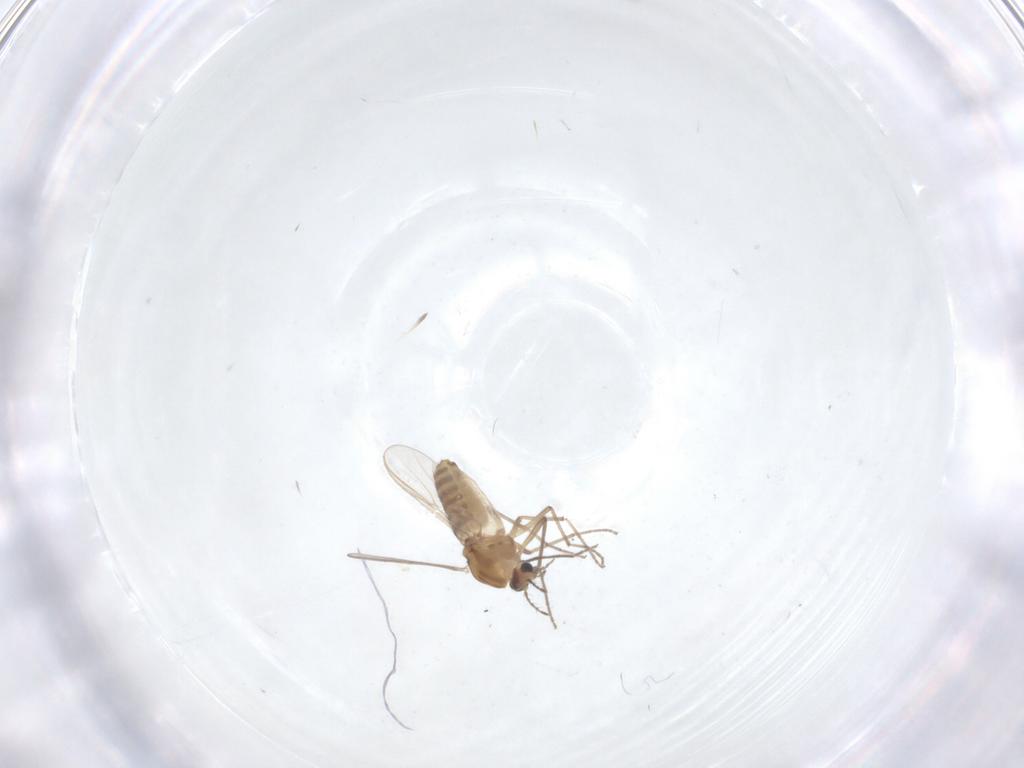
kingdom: Animalia
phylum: Arthropoda
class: Insecta
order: Diptera
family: Chironomidae
